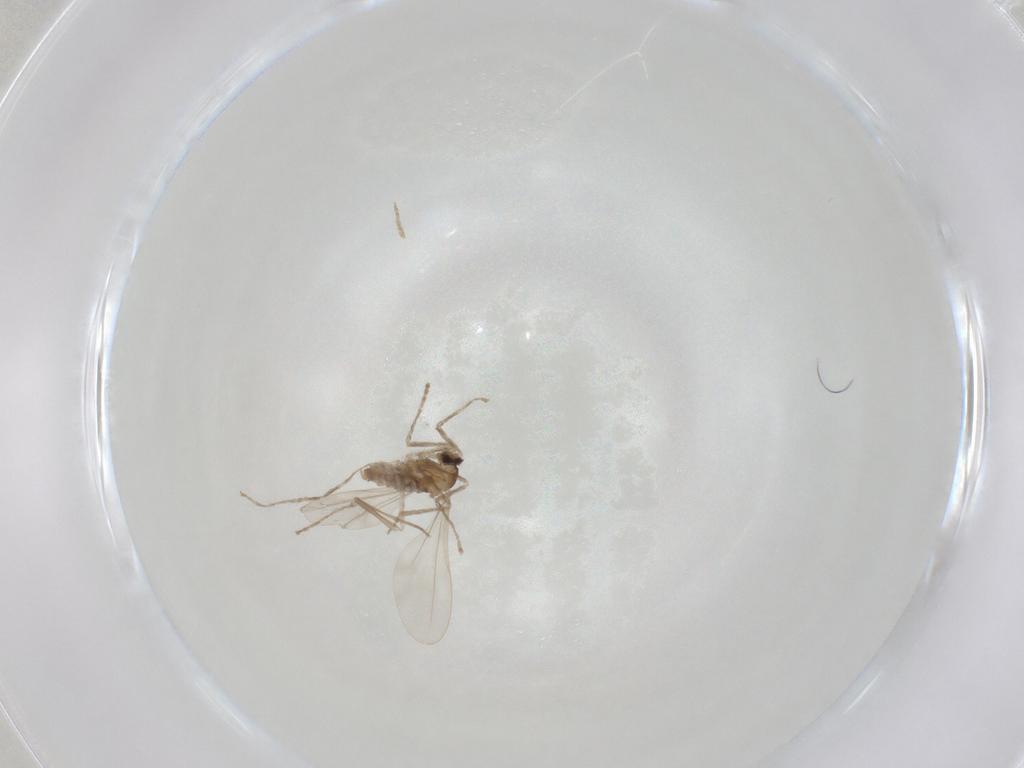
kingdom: Animalia
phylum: Arthropoda
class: Insecta
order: Diptera
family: Cecidomyiidae
